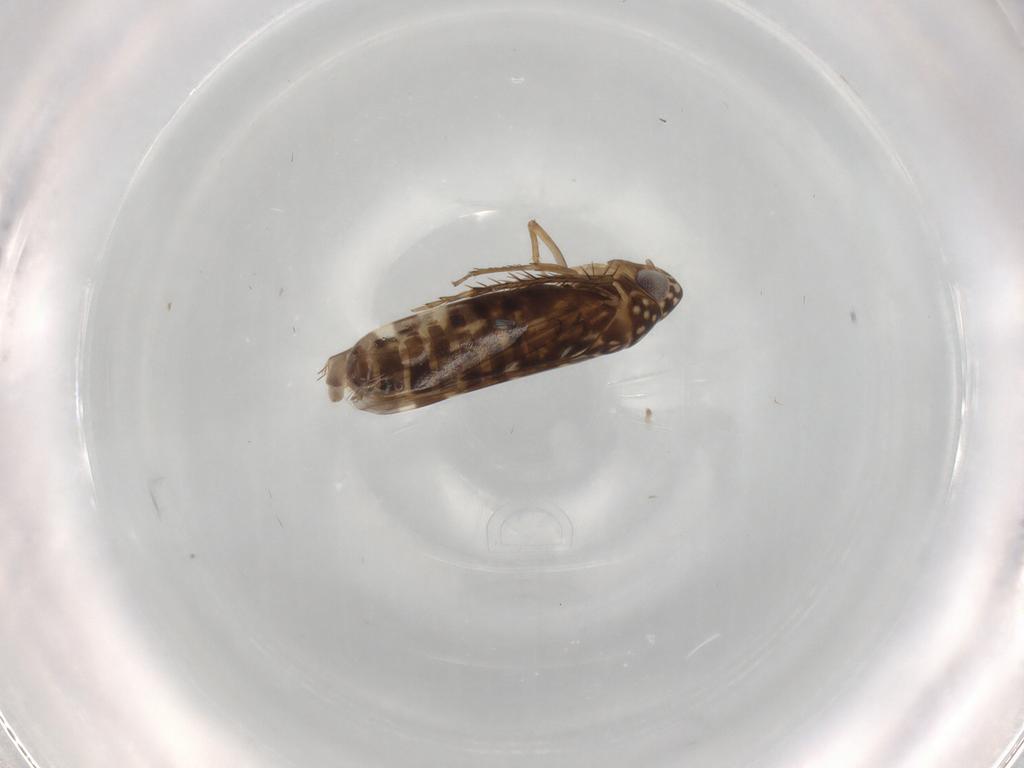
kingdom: Animalia
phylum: Arthropoda
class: Insecta
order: Hemiptera
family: Cicadellidae
